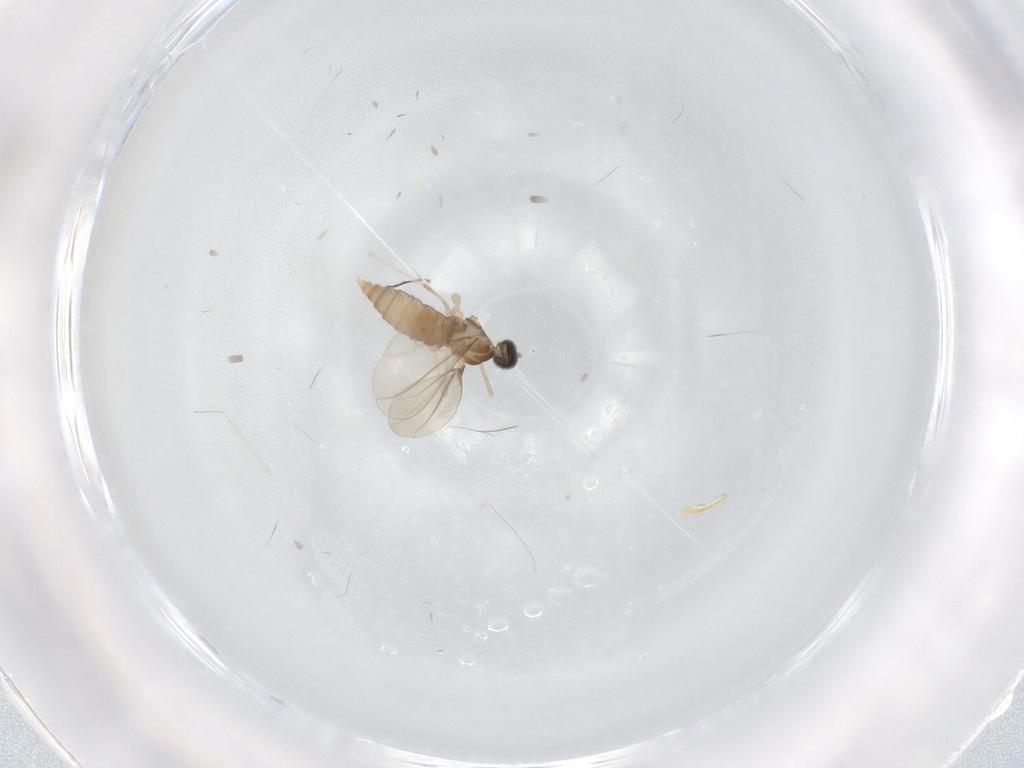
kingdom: Animalia
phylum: Arthropoda
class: Insecta
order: Diptera
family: Cecidomyiidae
